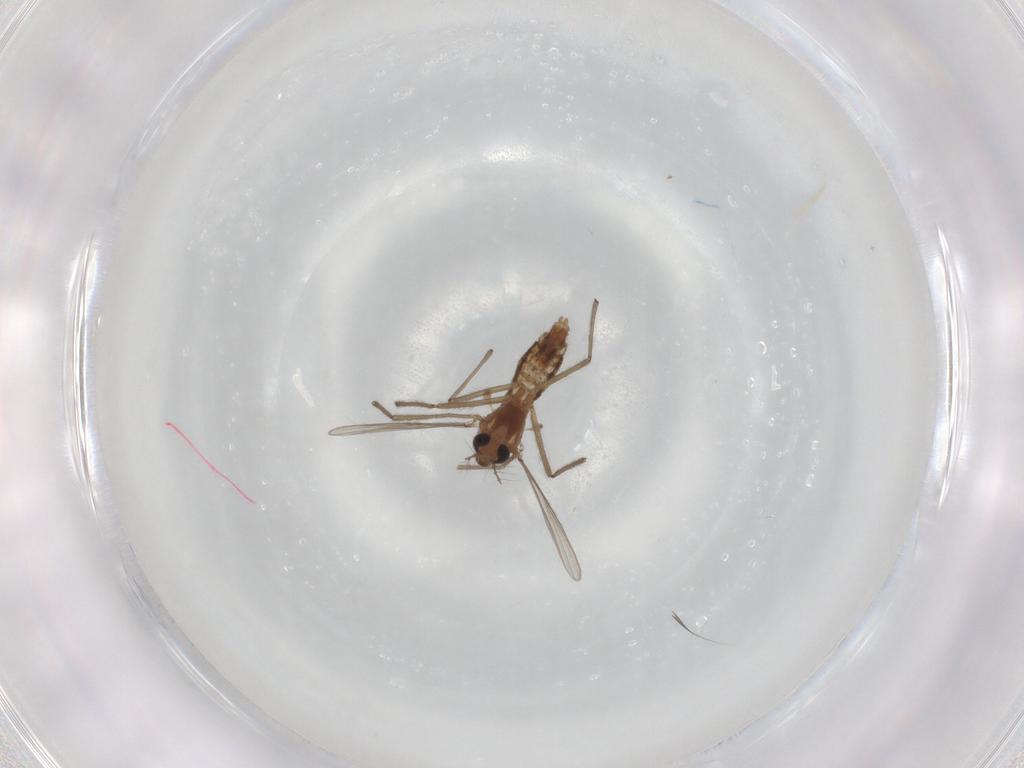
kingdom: Animalia
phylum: Arthropoda
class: Insecta
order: Diptera
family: Chironomidae
